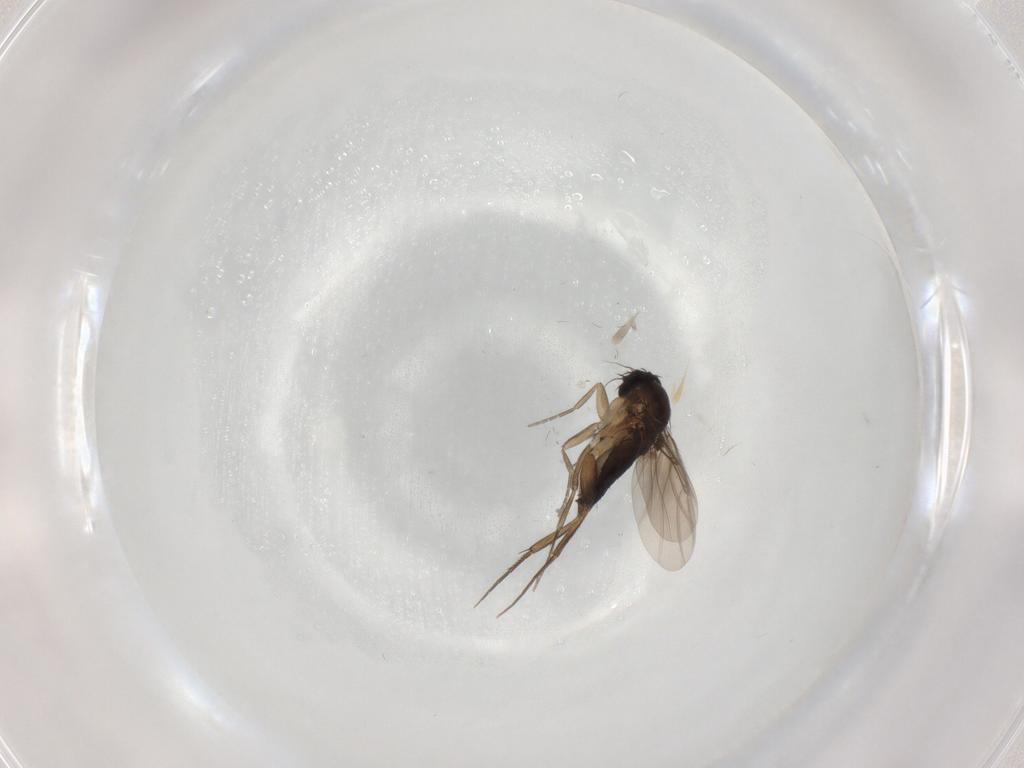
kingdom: Animalia
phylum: Arthropoda
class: Insecta
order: Diptera
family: Phoridae
